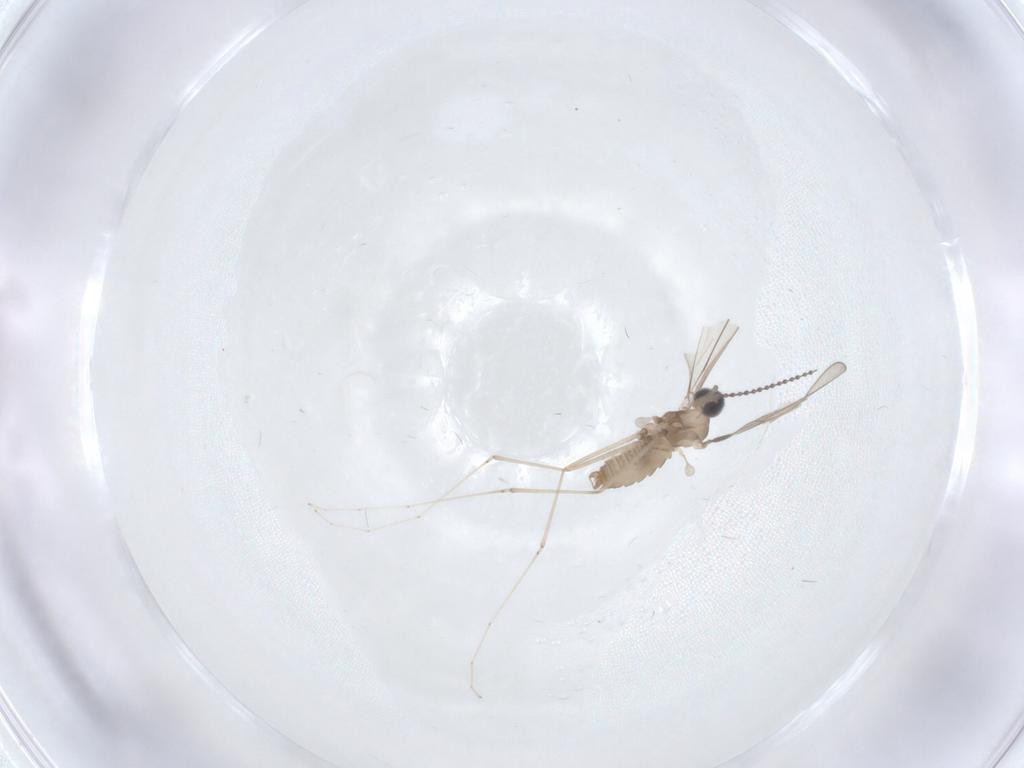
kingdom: Animalia
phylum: Arthropoda
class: Insecta
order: Diptera
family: Cecidomyiidae
